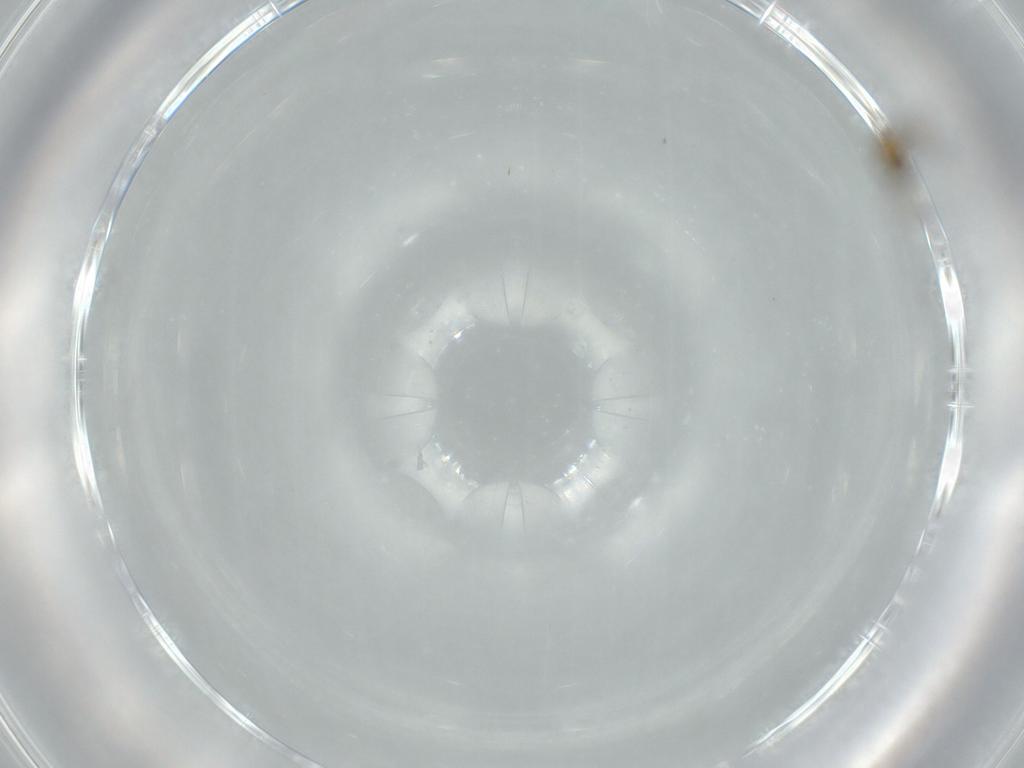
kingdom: Animalia
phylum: Arthropoda
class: Insecta
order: Hymenoptera
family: Aphelinidae
